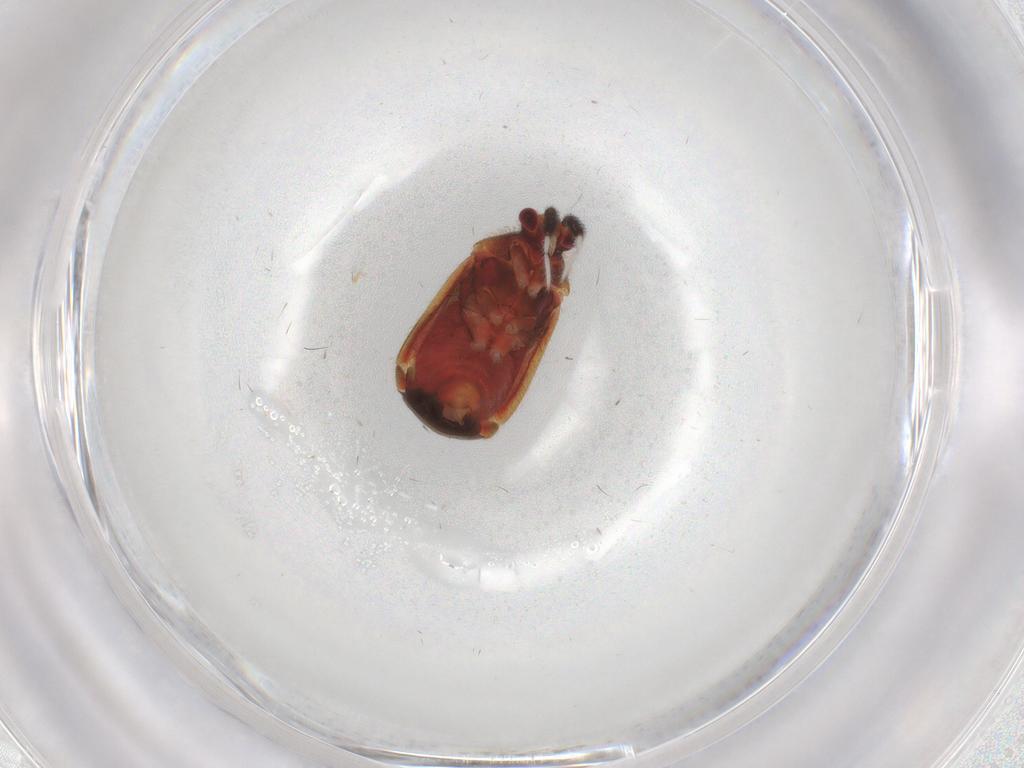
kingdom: Animalia
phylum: Arthropoda
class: Insecta
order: Hemiptera
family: Miridae
